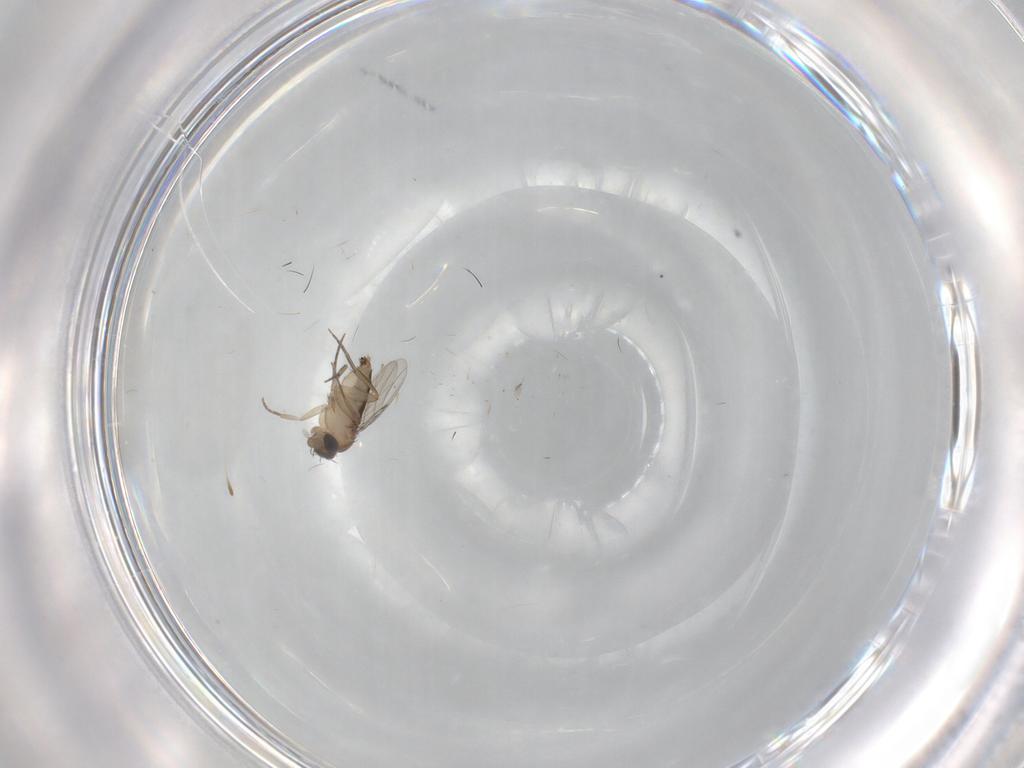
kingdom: Animalia
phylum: Arthropoda
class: Insecta
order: Diptera
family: Phoridae
